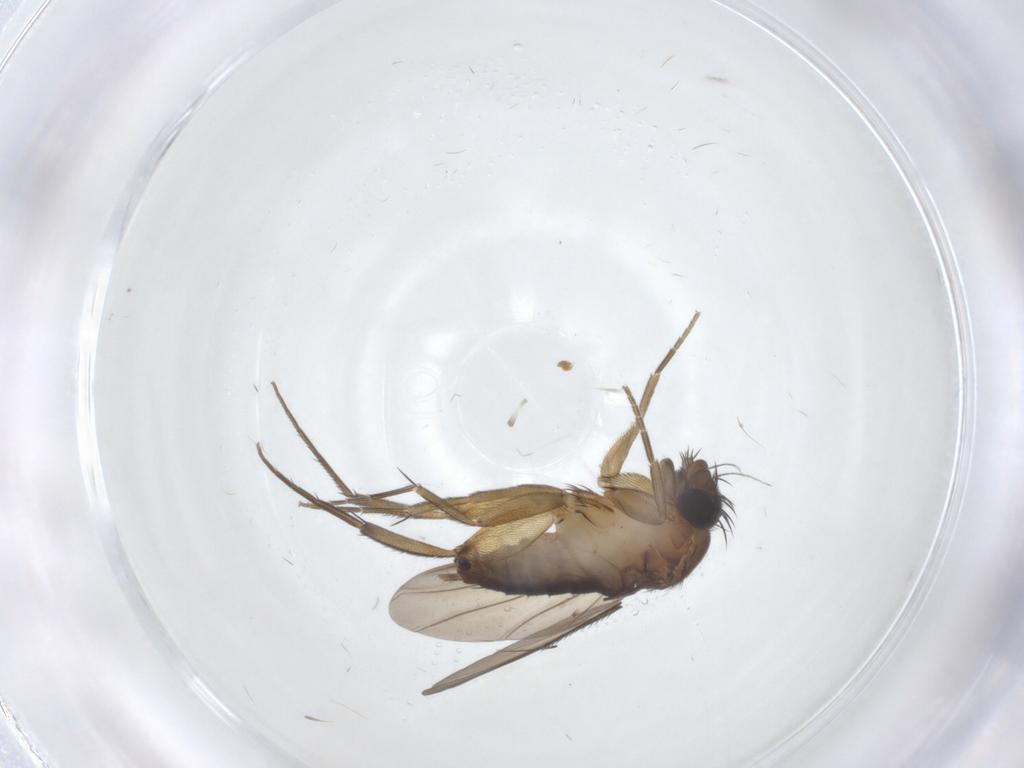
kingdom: Animalia
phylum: Arthropoda
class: Insecta
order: Diptera
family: Phoridae
